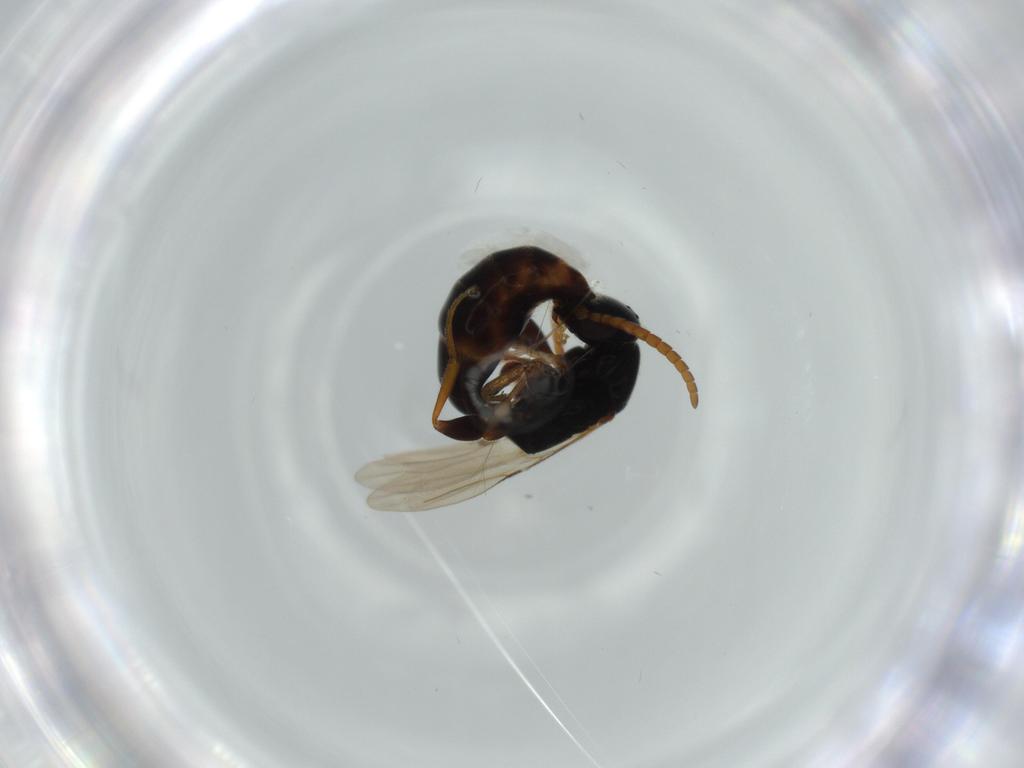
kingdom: Animalia
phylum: Arthropoda
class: Insecta
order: Hymenoptera
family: Bethylidae
